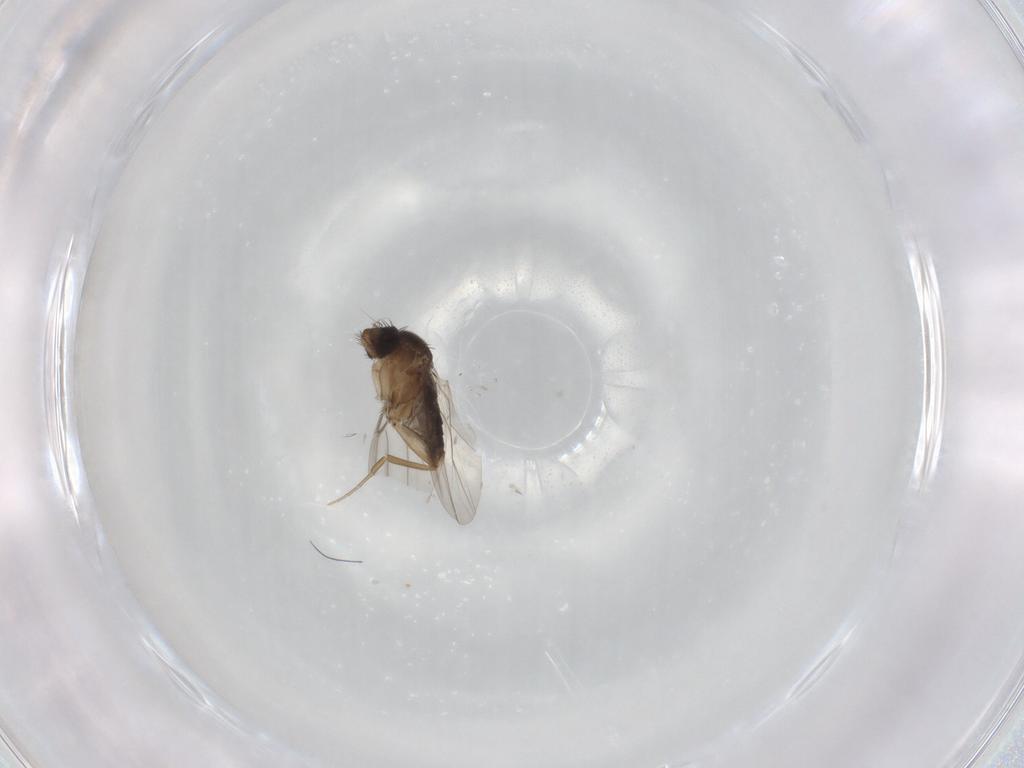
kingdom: Animalia
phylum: Arthropoda
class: Insecta
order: Diptera
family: Phoridae
